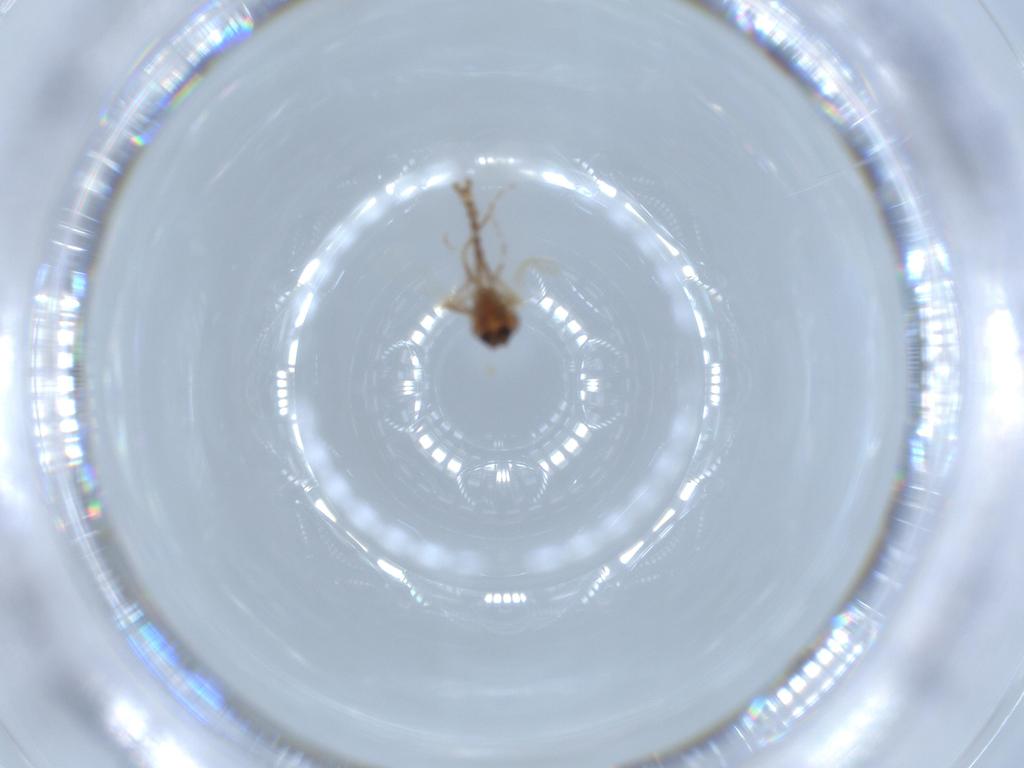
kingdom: Animalia
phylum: Arthropoda
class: Insecta
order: Diptera
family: Ceratopogonidae
